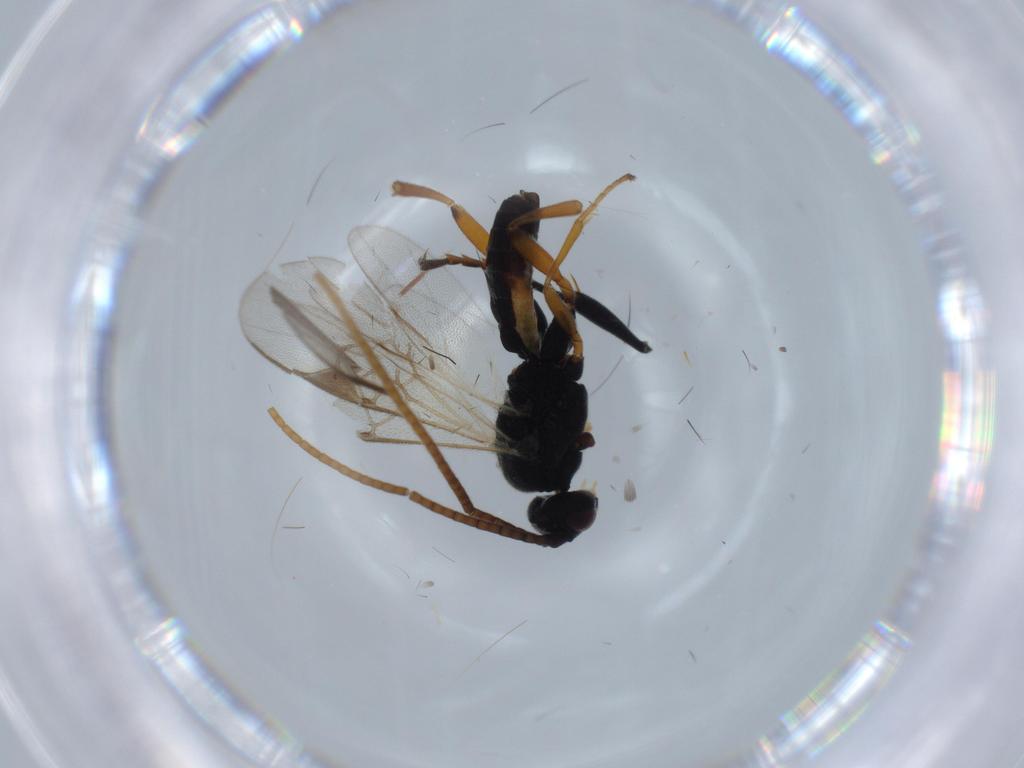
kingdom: Animalia
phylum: Arthropoda
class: Insecta
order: Hymenoptera
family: Braconidae
